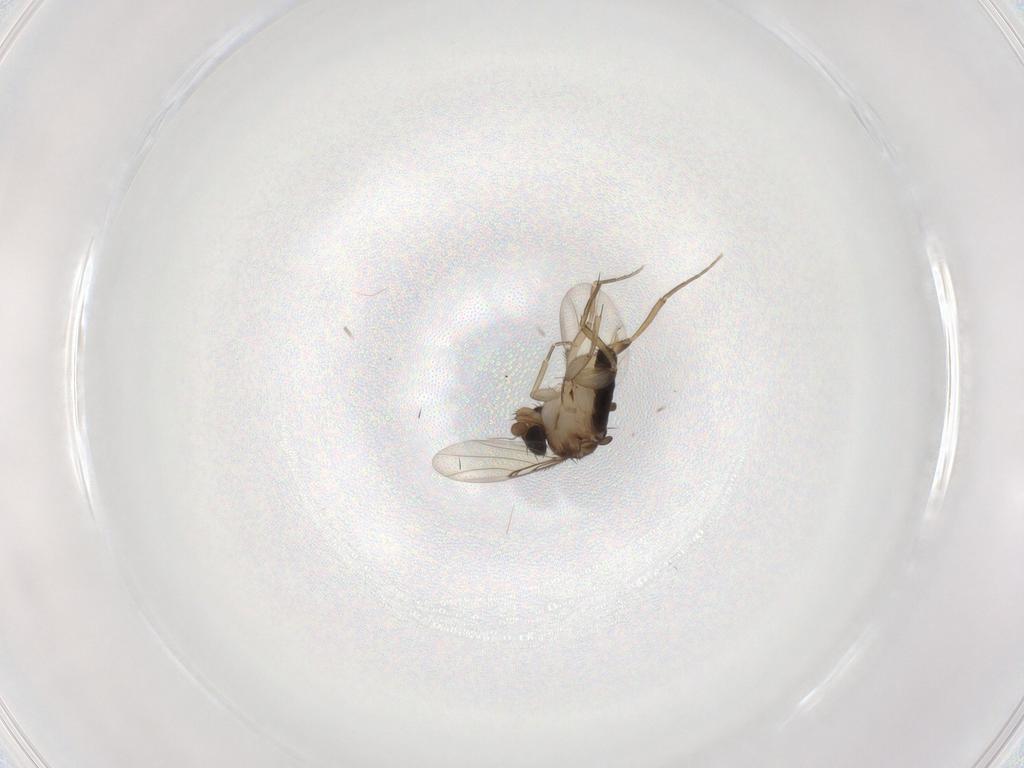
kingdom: Animalia
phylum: Arthropoda
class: Insecta
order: Diptera
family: Phoridae
